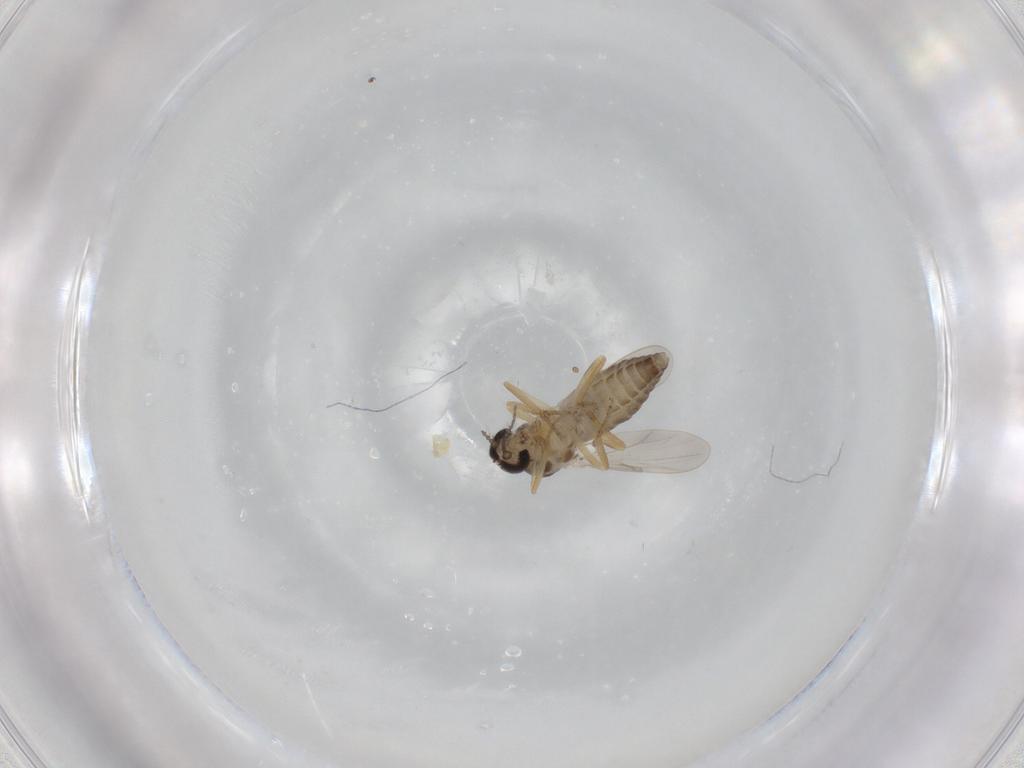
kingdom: Animalia
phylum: Arthropoda
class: Insecta
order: Diptera
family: Ceratopogonidae
